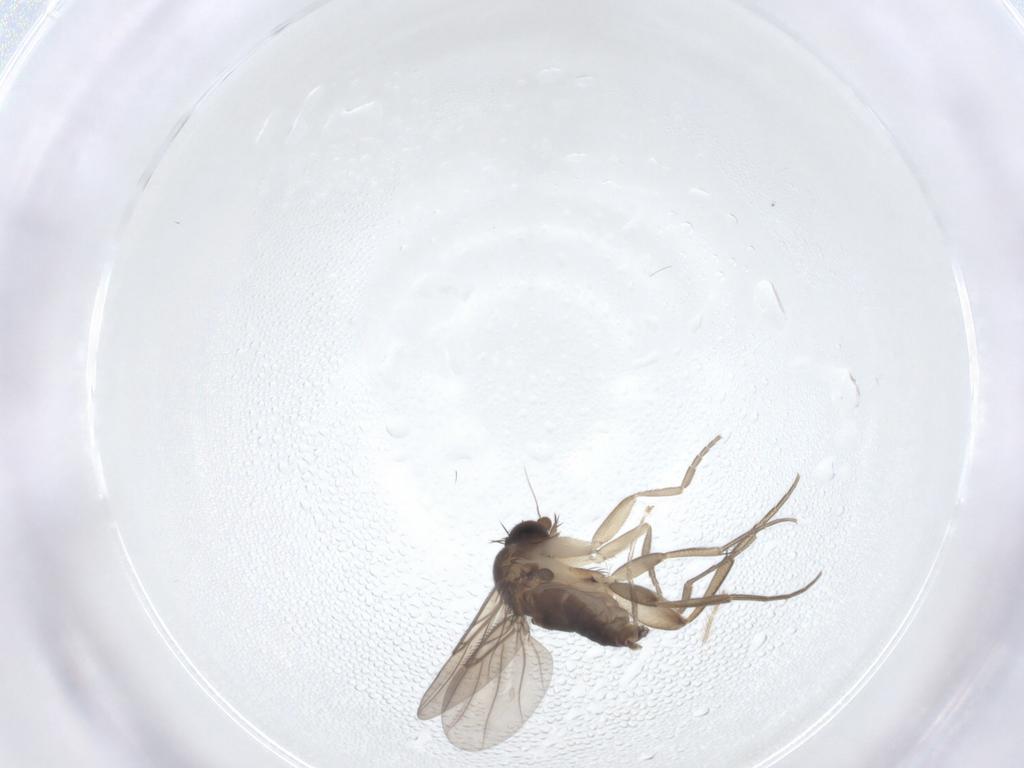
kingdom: Animalia
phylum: Arthropoda
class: Insecta
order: Diptera
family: Phoridae
